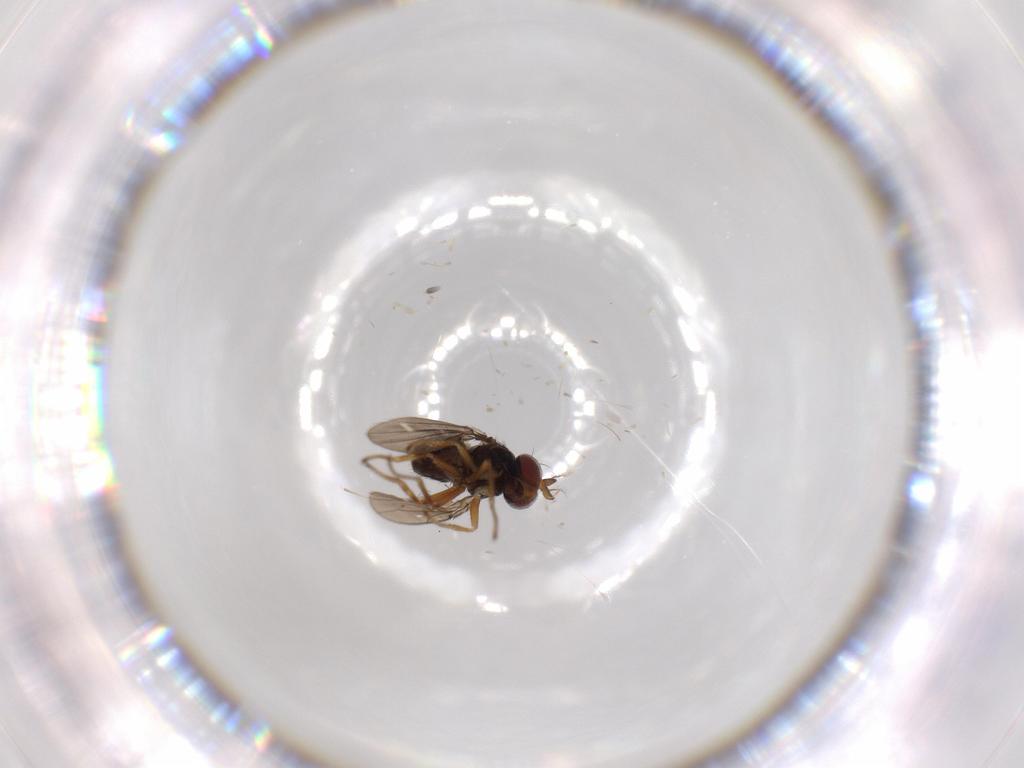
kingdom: Animalia
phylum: Arthropoda
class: Insecta
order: Diptera
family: Ephydridae
